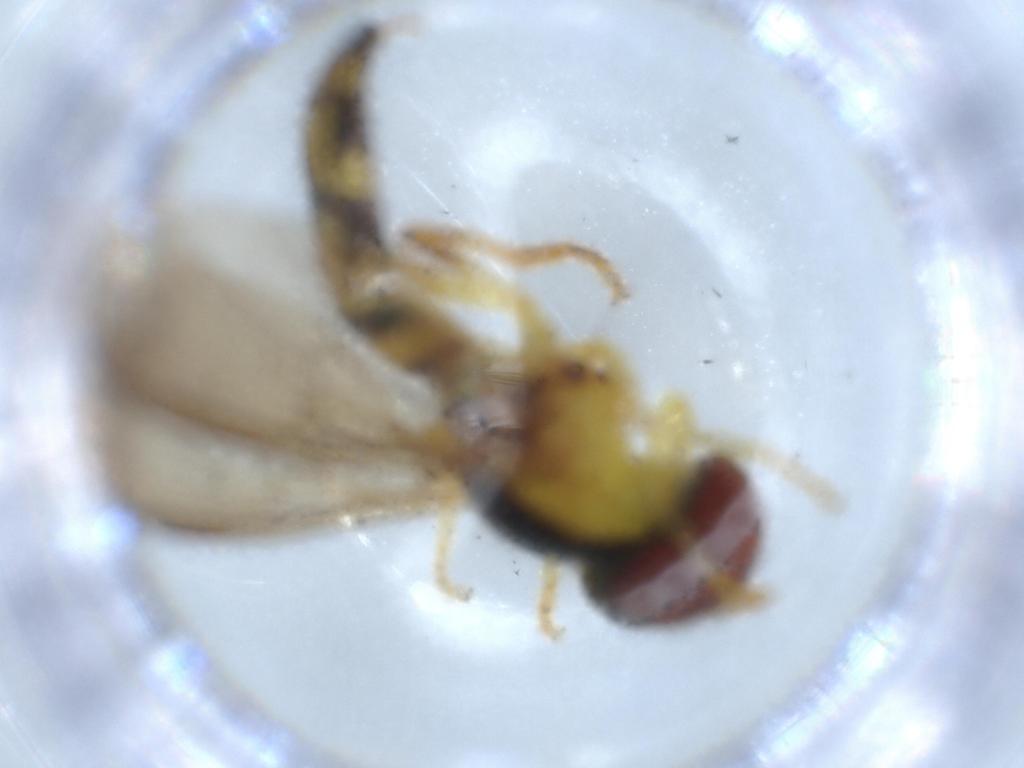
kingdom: Animalia
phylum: Arthropoda
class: Insecta
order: Diptera
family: Syrphidae
